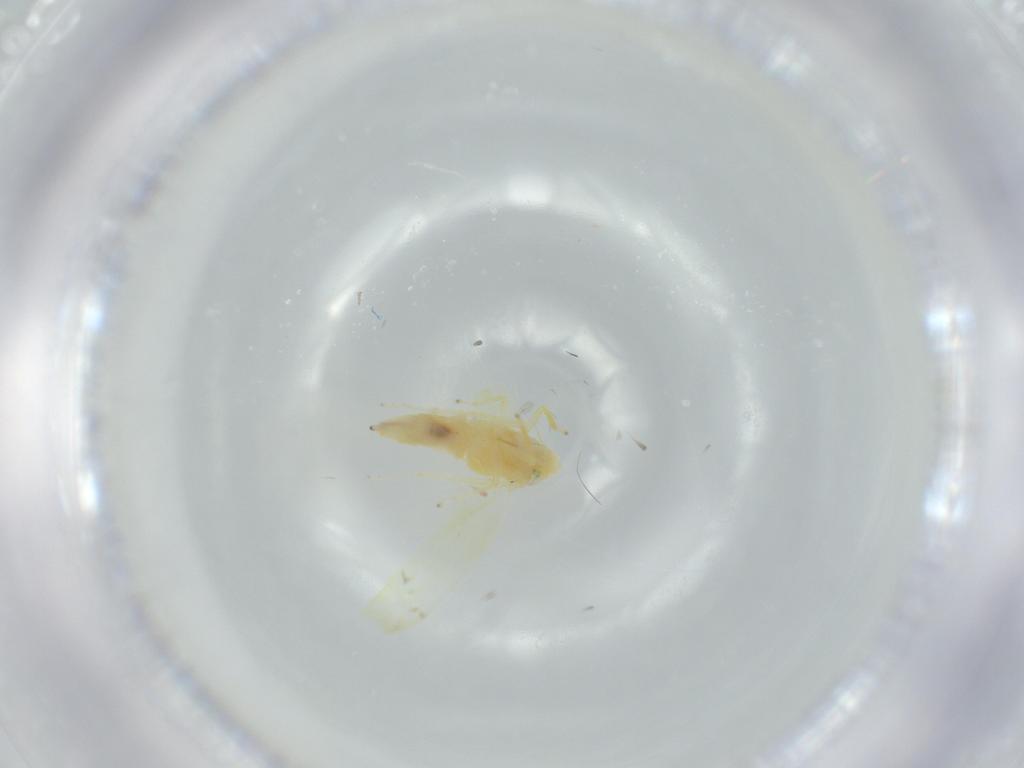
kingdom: Animalia
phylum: Arthropoda
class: Insecta
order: Hemiptera
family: Cicadellidae
